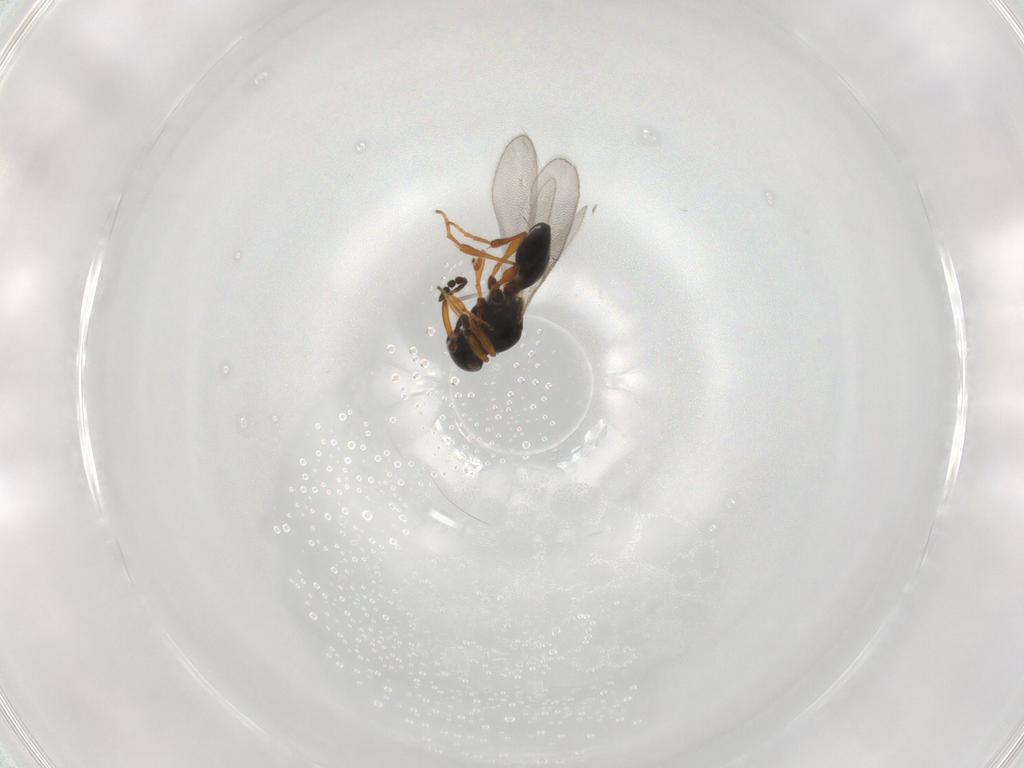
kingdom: Animalia
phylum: Arthropoda
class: Insecta
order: Hymenoptera
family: Platygastridae
